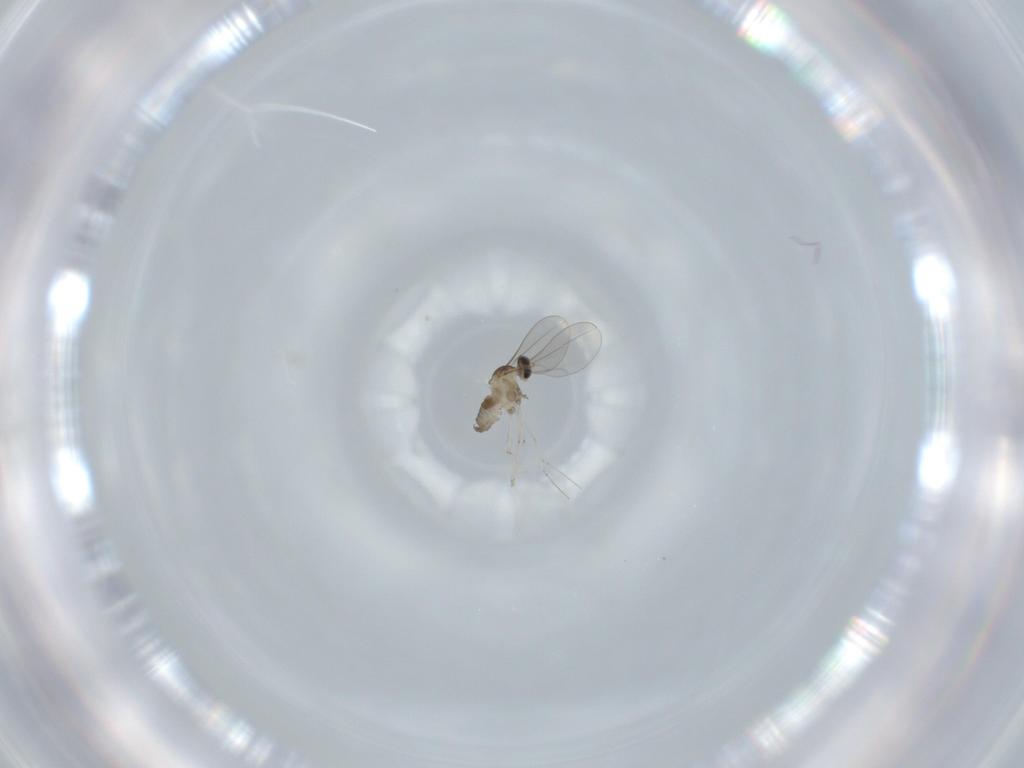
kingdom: Animalia
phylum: Arthropoda
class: Insecta
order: Diptera
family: Cecidomyiidae
